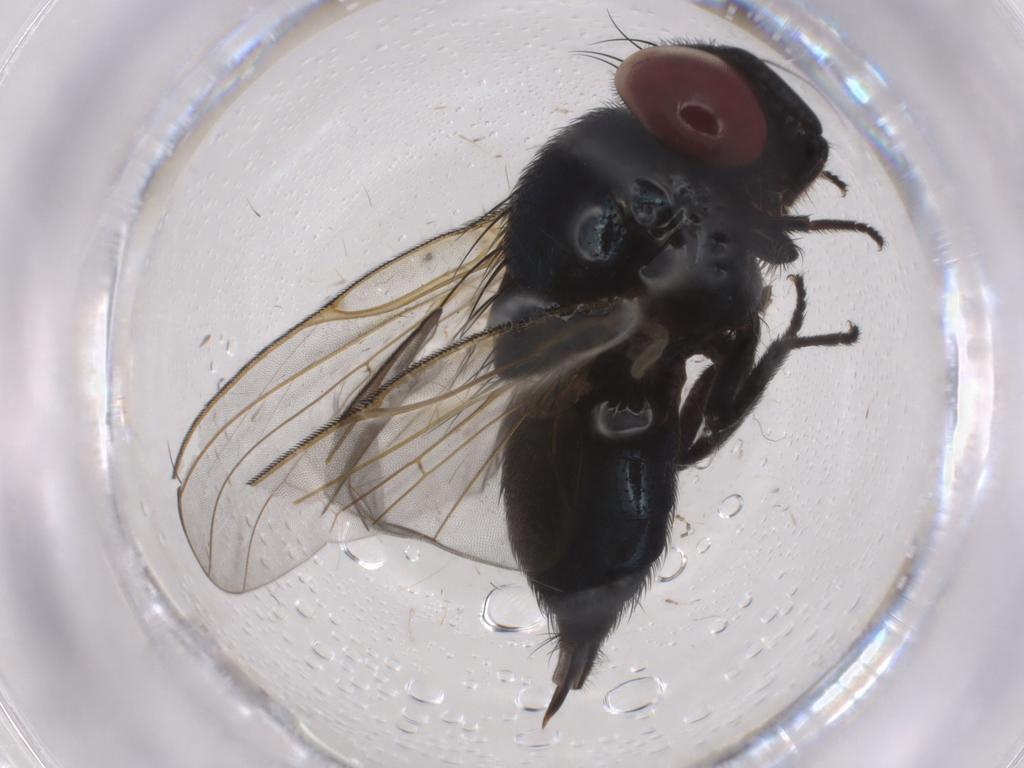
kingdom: Animalia
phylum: Arthropoda
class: Insecta
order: Diptera
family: Lonchaeidae
